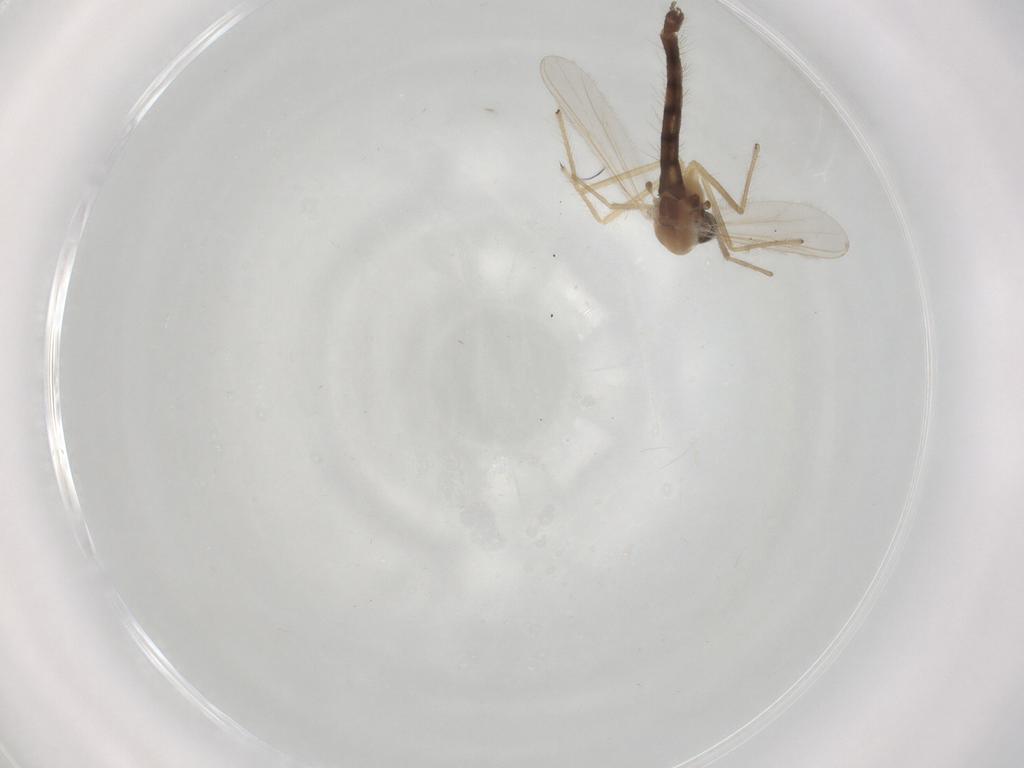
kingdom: Animalia
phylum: Arthropoda
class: Insecta
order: Diptera
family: Chironomidae
